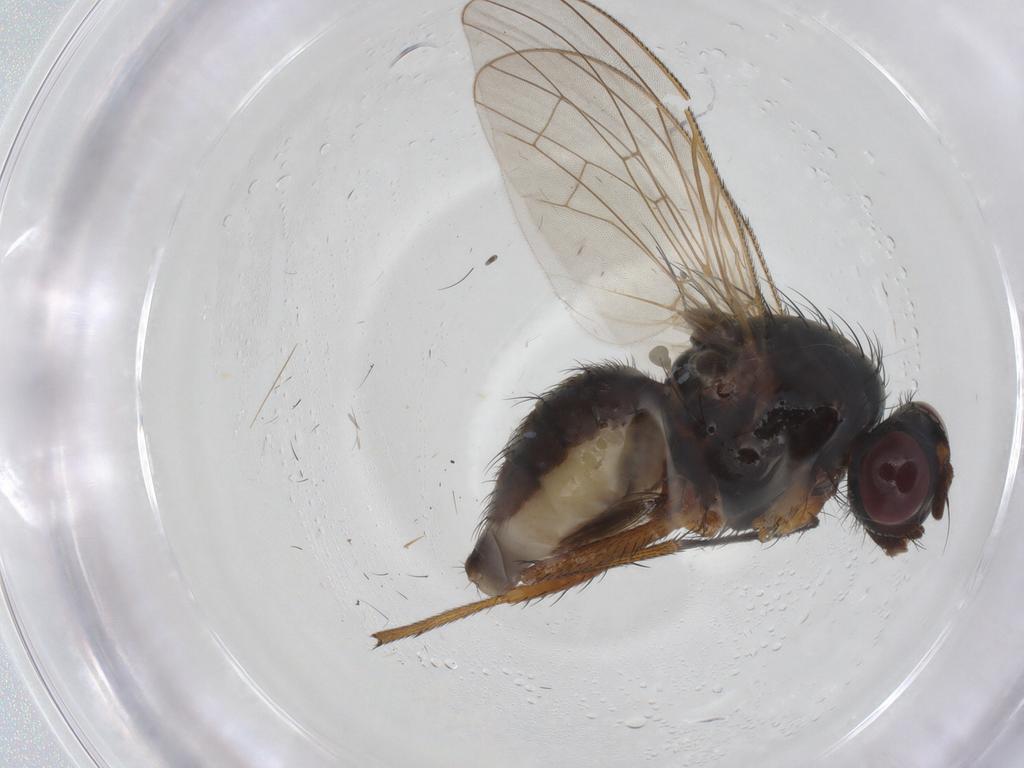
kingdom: Animalia
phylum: Arthropoda
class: Insecta
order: Diptera
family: Ceratopogonidae
